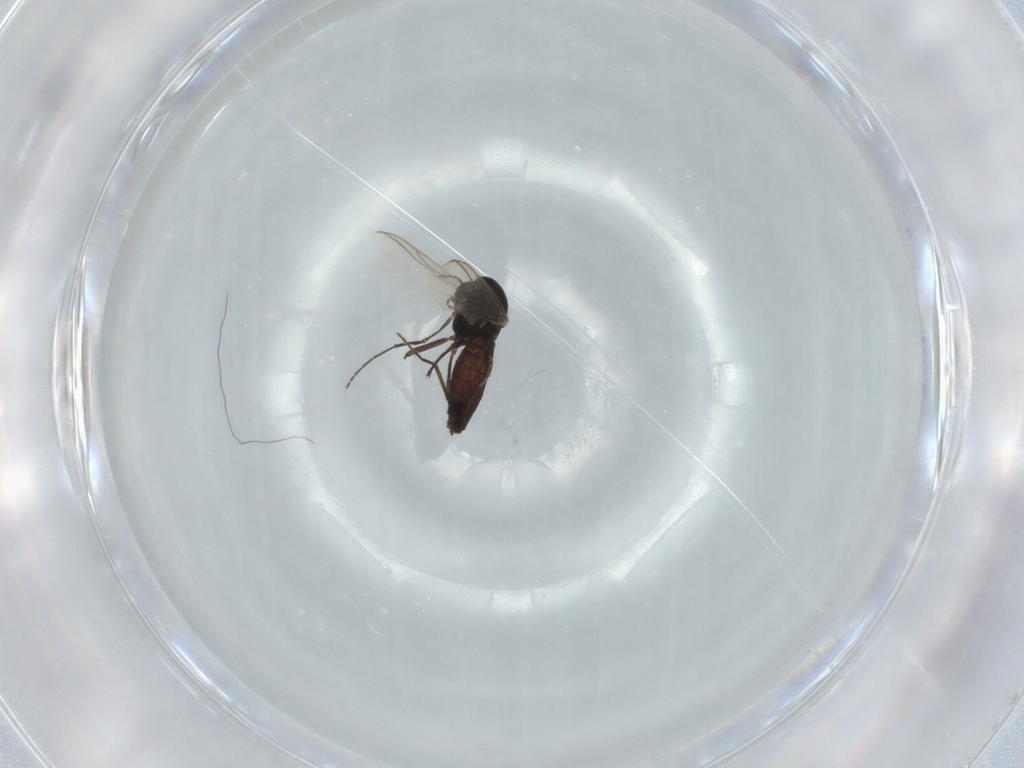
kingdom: Animalia
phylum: Arthropoda
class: Insecta
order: Diptera
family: Chironomidae
